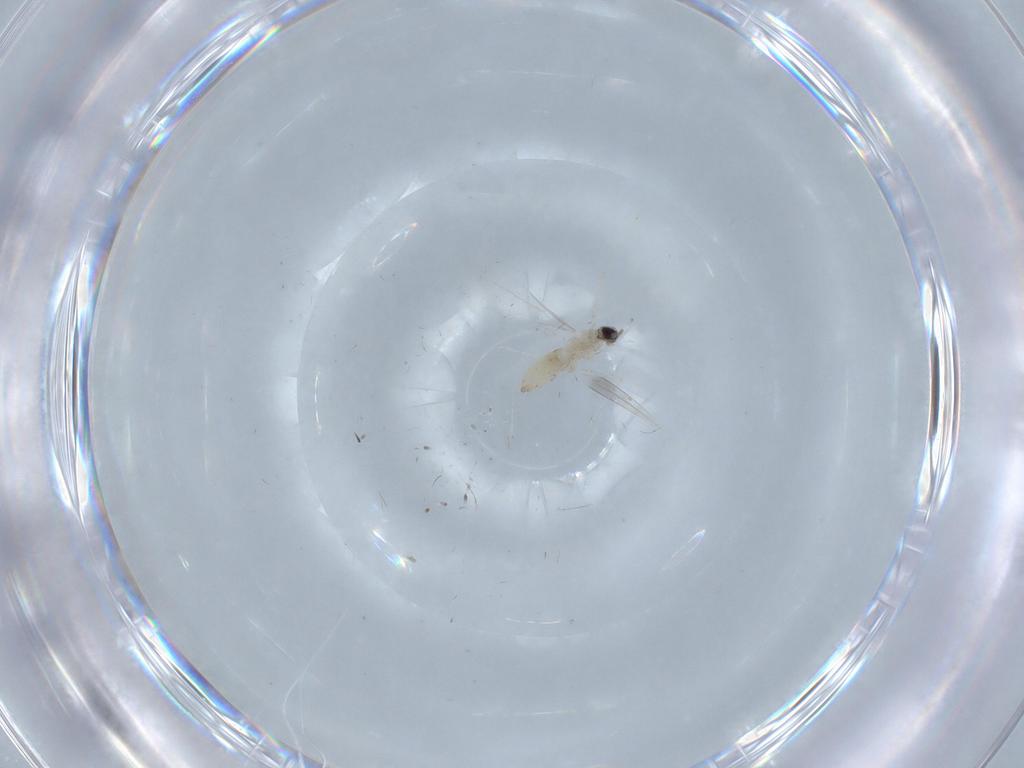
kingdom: Animalia
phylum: Arthropoda
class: Insecta
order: Diptera
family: Cecidomyiidae
